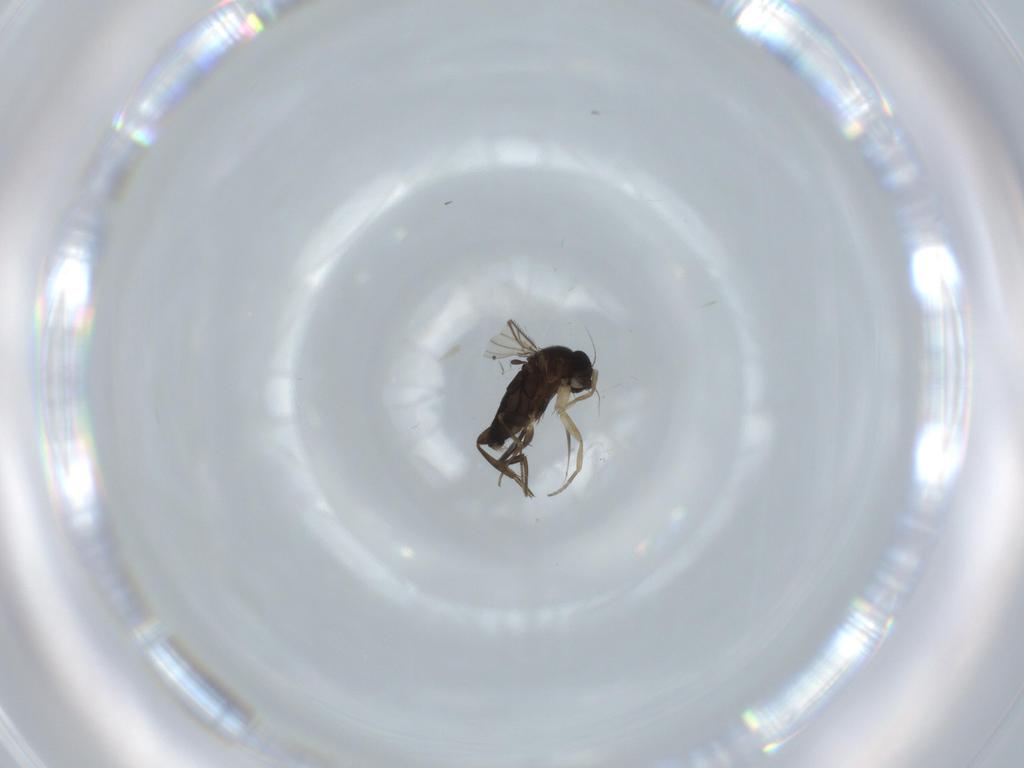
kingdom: Animalia
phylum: Arthropoda
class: Insecta
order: Diptera
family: Phoridae
